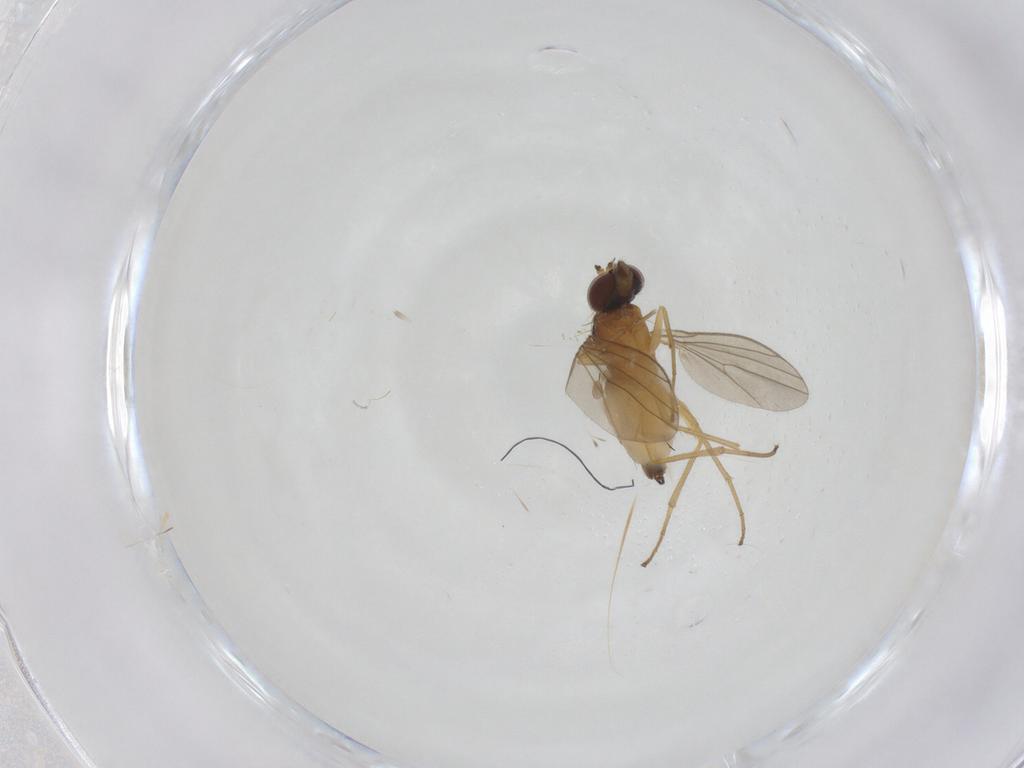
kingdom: Animalia
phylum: Arthropoda
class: Insecta
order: Diptera
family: Dolichopodidae
